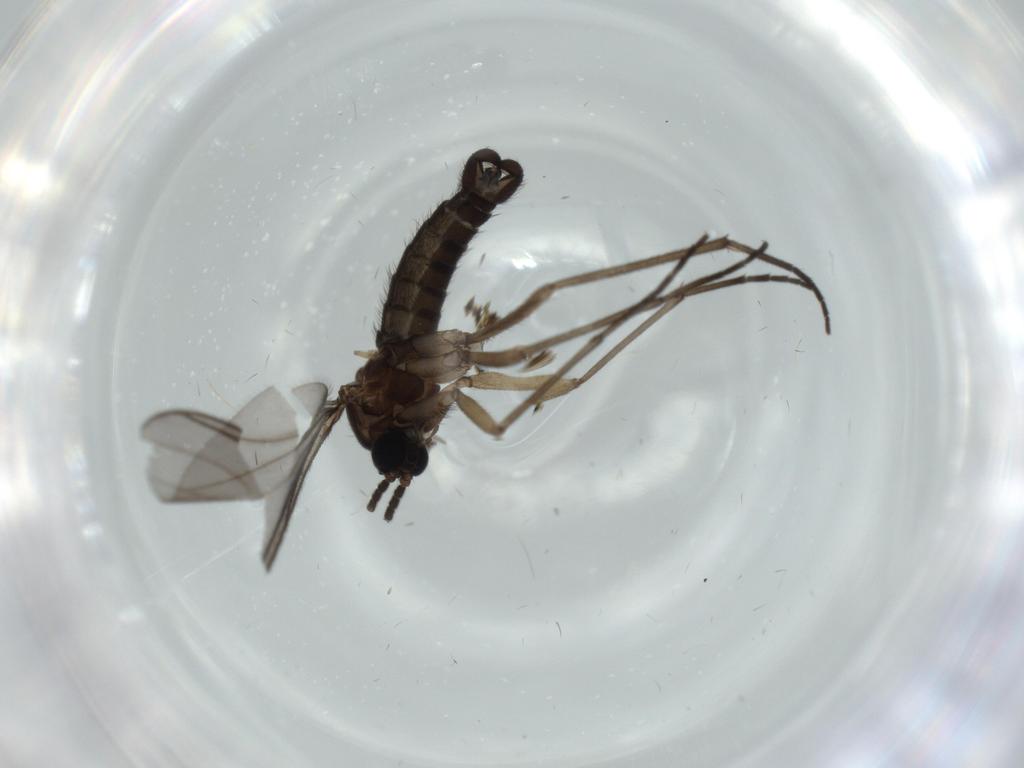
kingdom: Animalia
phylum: Arthropoda
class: Insecta
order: Diptera
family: Sciaridae
